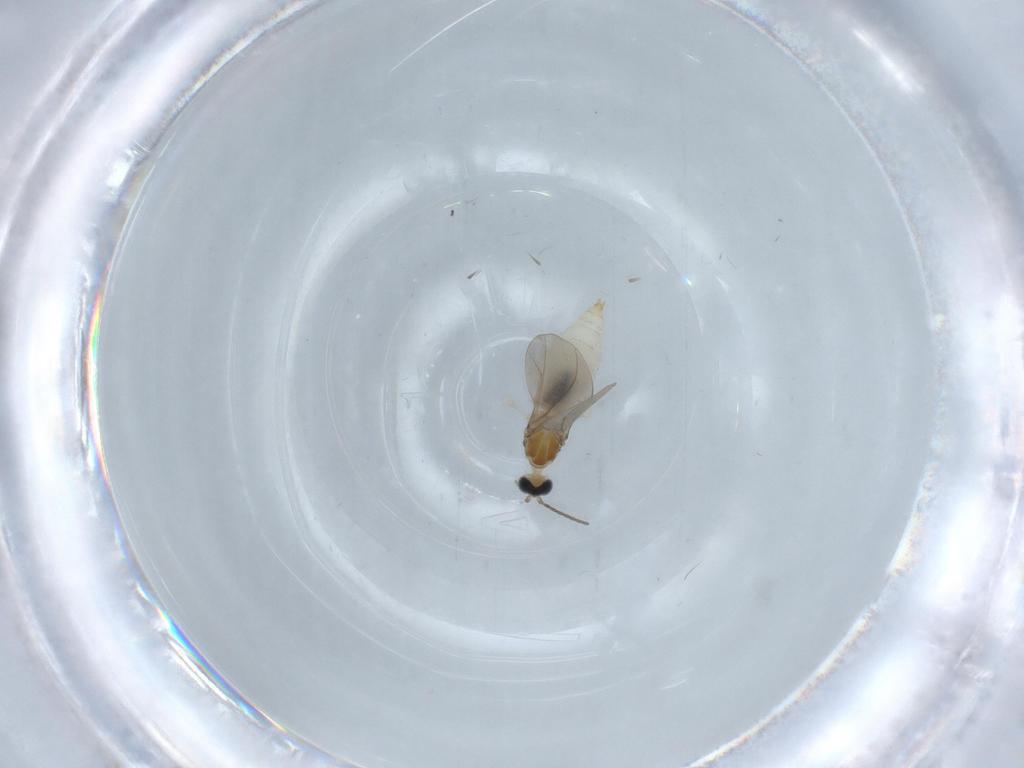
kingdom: Animalia
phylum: Arthropoda
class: Insecta
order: Diptera
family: Cecidomyiidae
